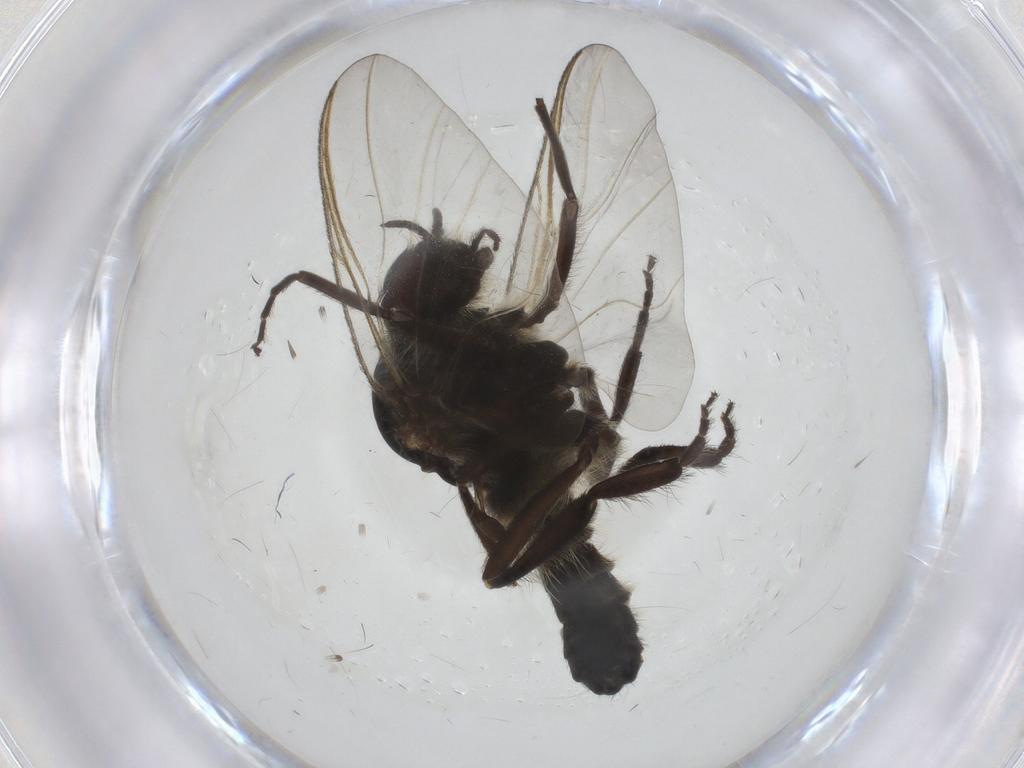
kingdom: Animalia
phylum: Arthropoda
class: Insecta
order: Diptera
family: Simuliidae
